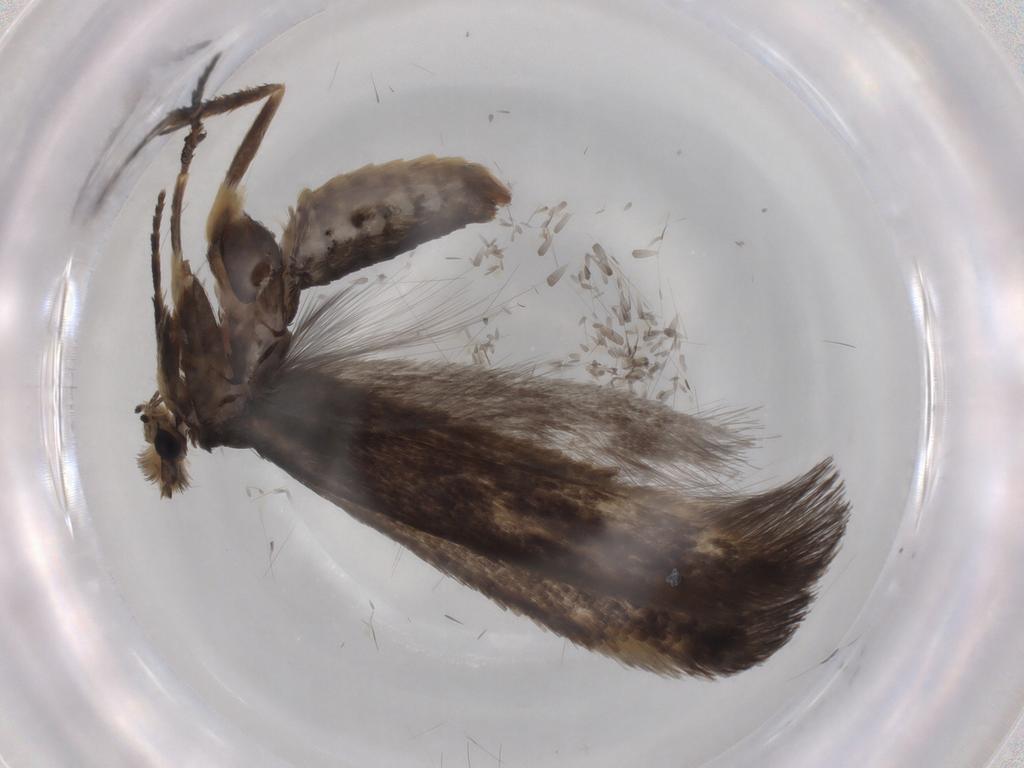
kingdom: Animalia
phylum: Arthropoda
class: Insecta
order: Lepidoptera
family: Nepticulidae
